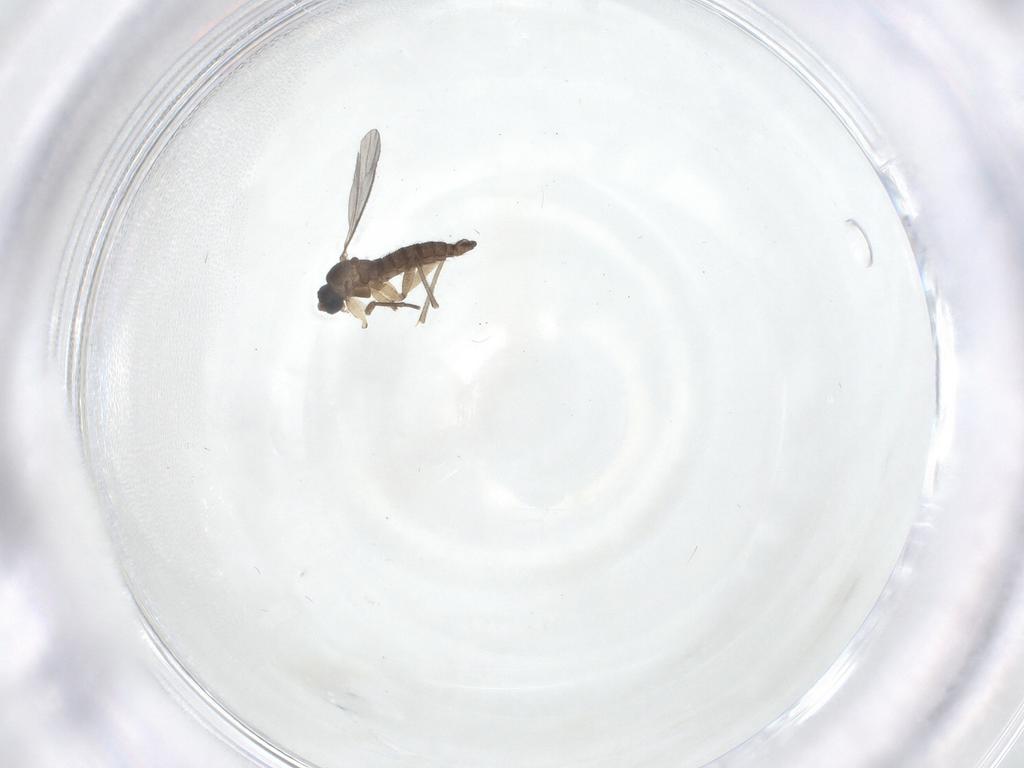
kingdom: Animalia
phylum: Arthropoda
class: Insecta
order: Diptera
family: Sciaridae
